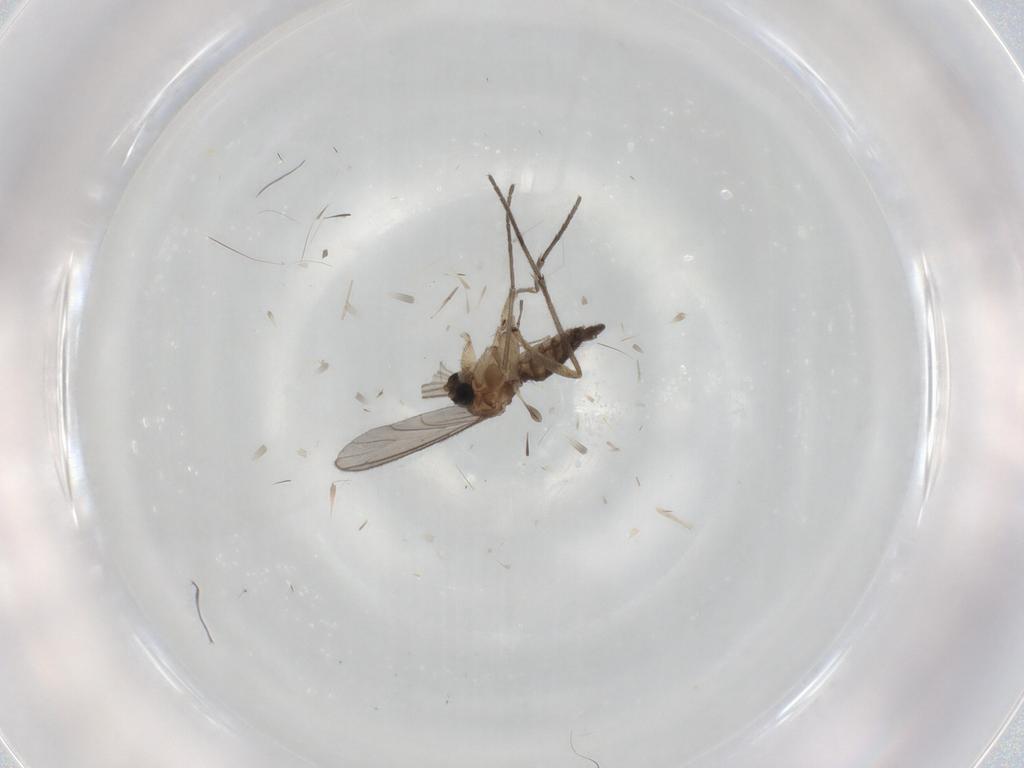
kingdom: Animalia
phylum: Arthropoda
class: Insecta
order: Diptera
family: Sciaridae
